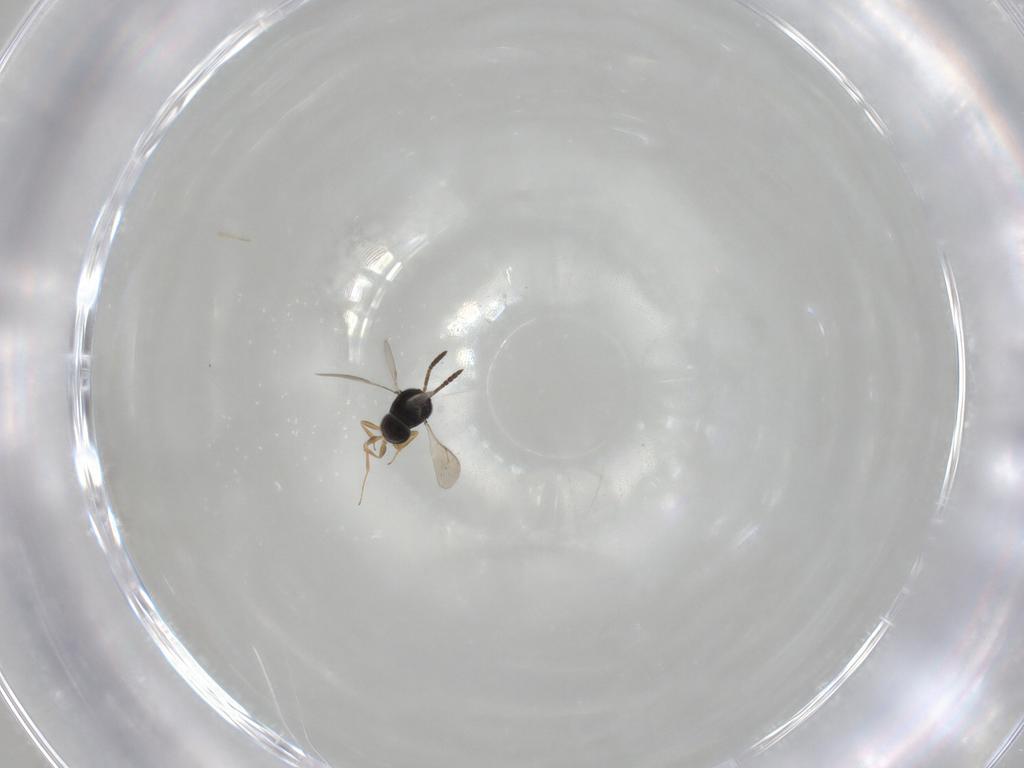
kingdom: Animalia
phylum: Arthropoda
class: Insecta
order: Hymenoptera
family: Scelionidae
